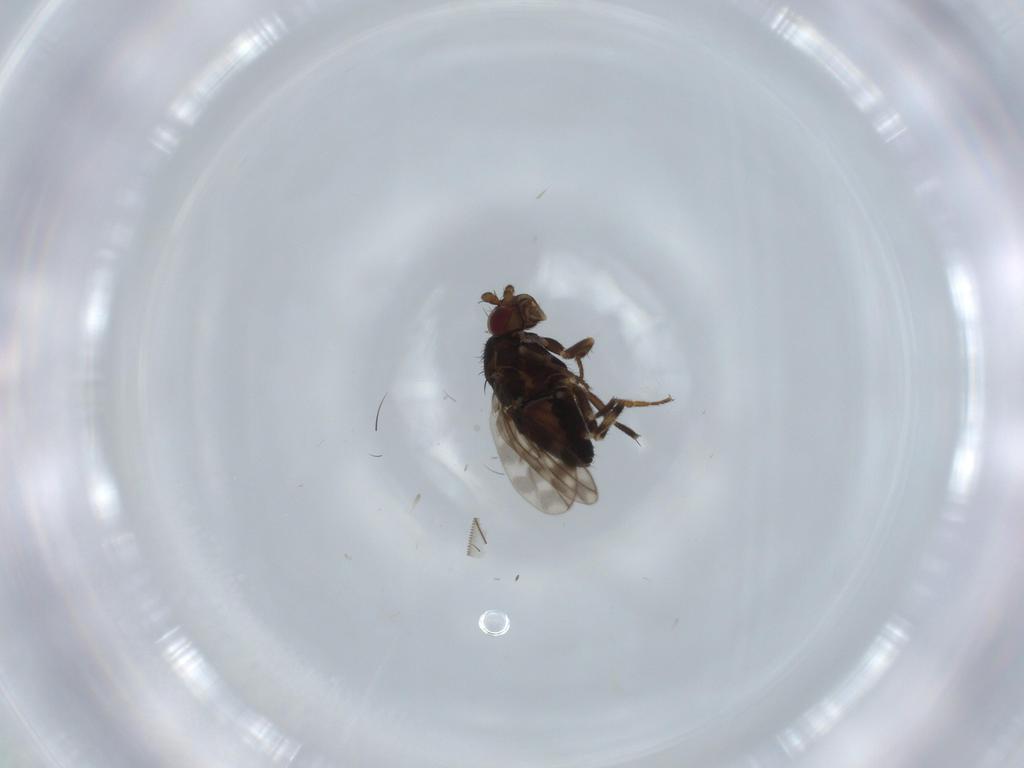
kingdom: Animalia
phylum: Arthropoda
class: Insecta
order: Diptera
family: Sphaeroceridae
